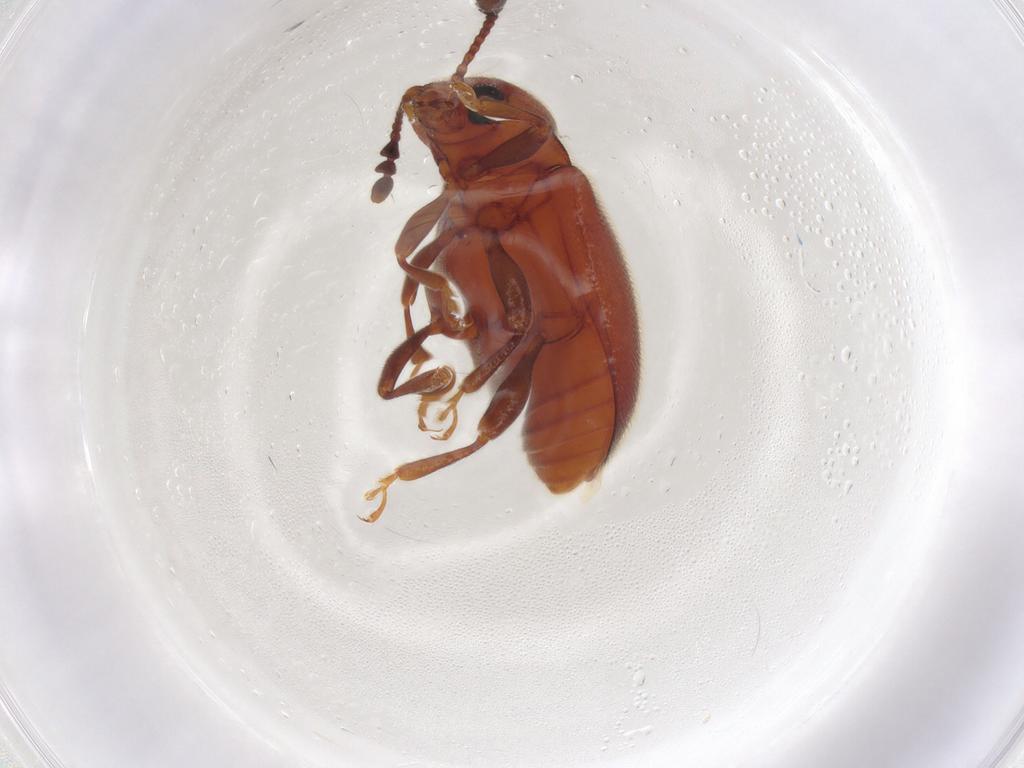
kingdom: Animalia
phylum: Arthropoda
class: Insecta
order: Coleoptera
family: Endomychidae
